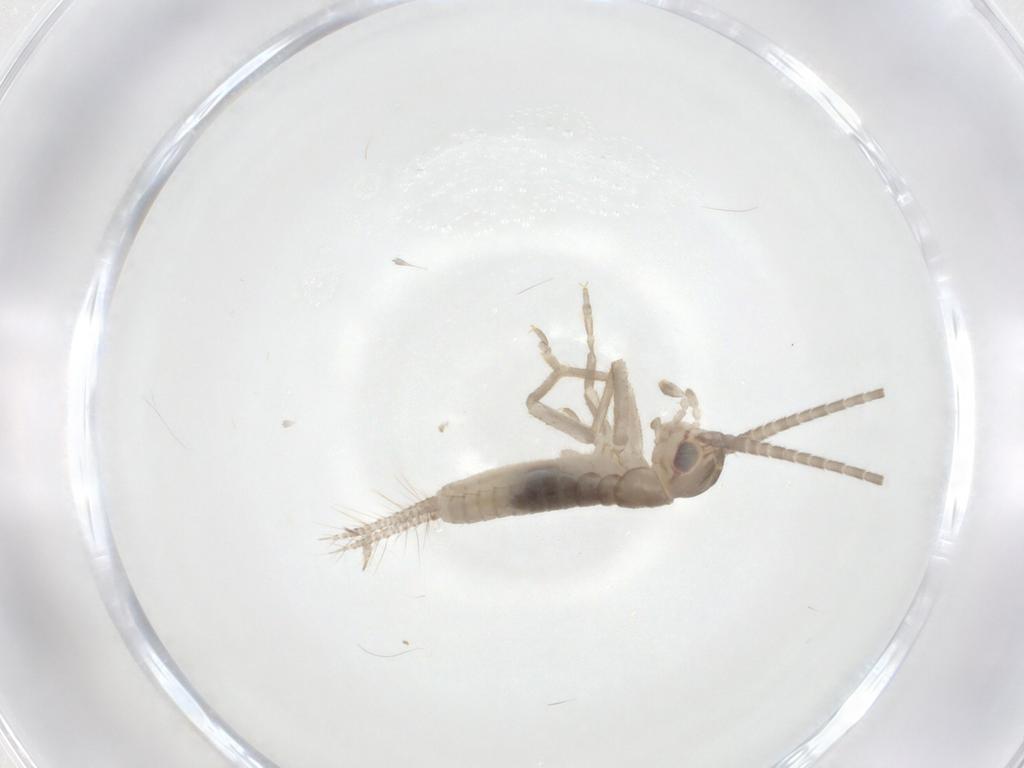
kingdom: Animalia
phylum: Arthropoda
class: Insecta
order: Orthoptera
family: Gryllidae
